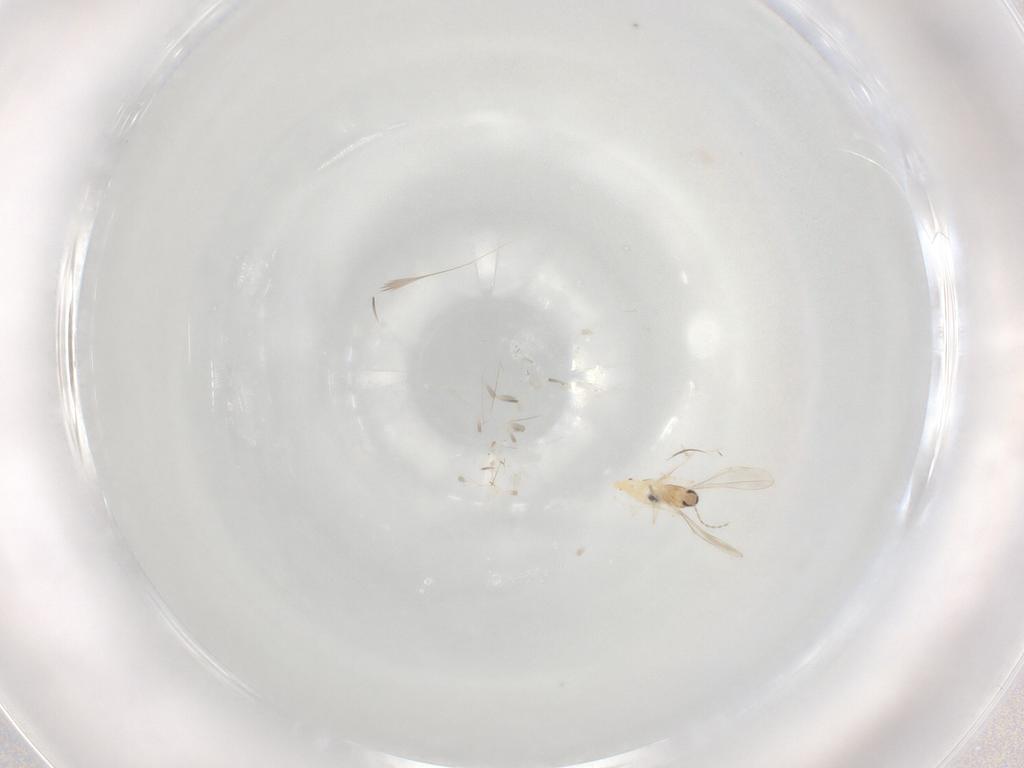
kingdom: Animalia
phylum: Arthropoda
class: Insecta
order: Diptera
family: Cecidomyiidae
